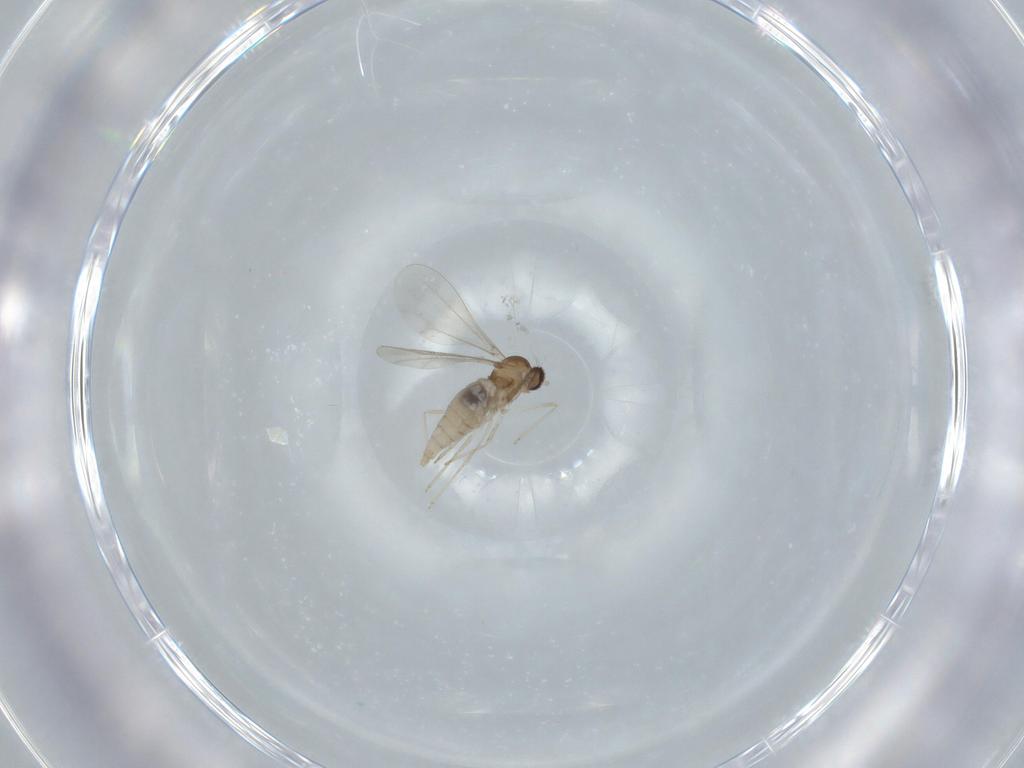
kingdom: Animalia
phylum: Arthropoda
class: Insecta
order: Diptera
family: Cecidomyiidae
